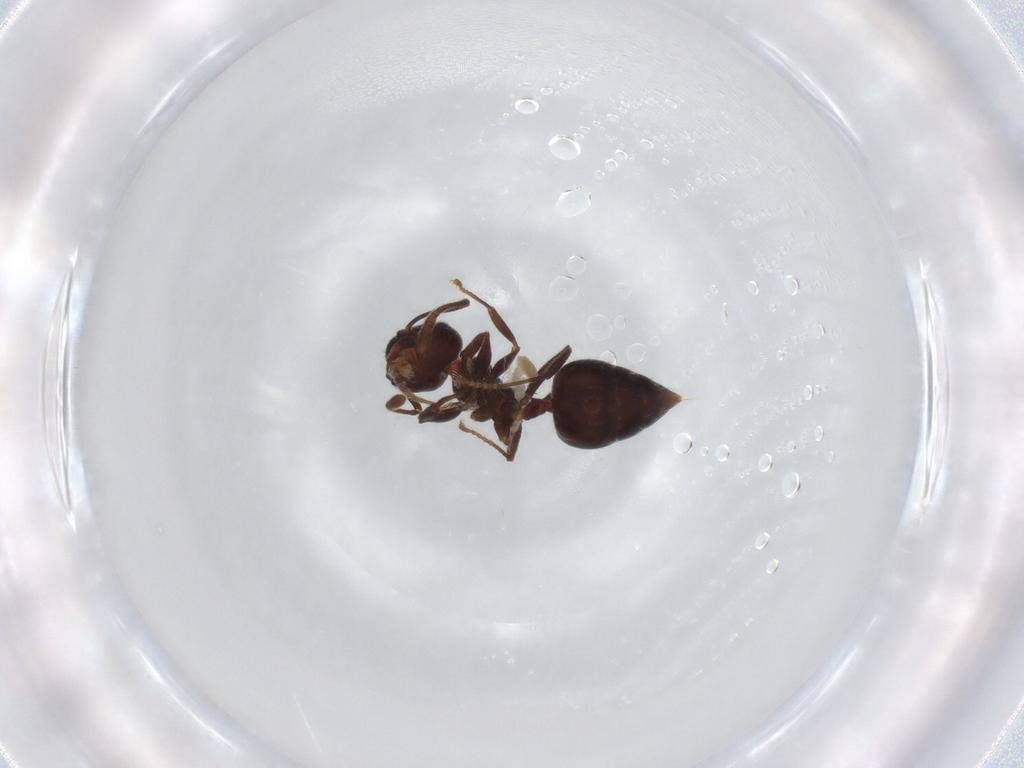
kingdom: Animalia
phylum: Arthropoda
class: Insecta
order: Hymenoptera
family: Formicidae
